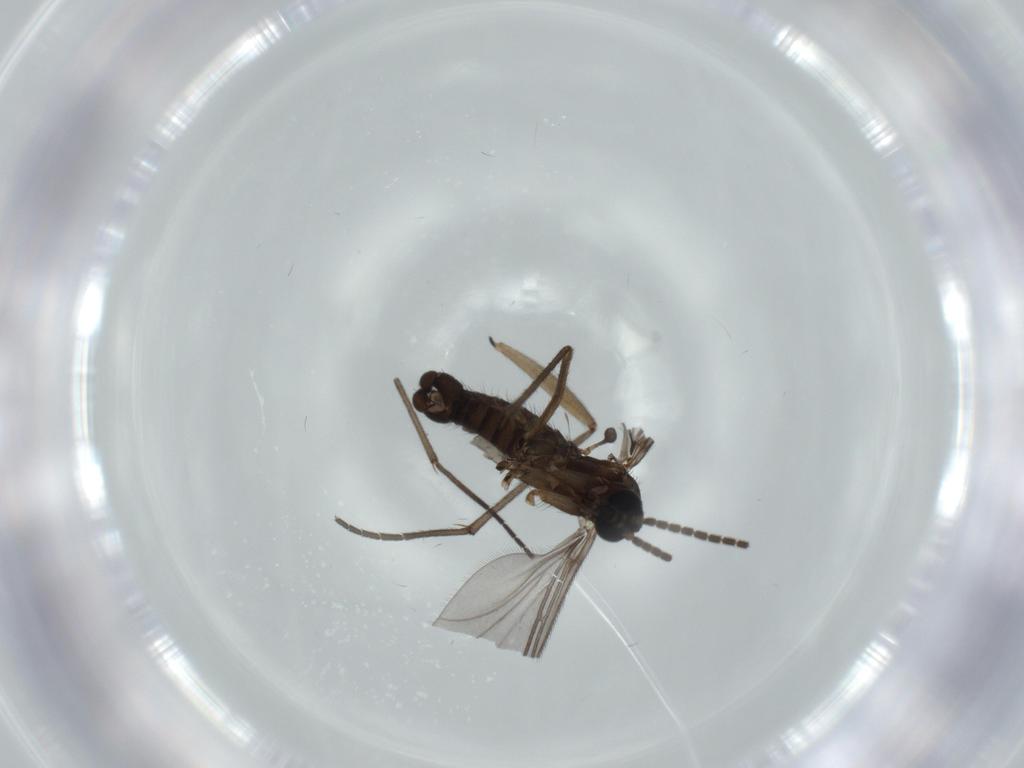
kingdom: Animalia
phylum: Arthropoda
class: Insecta
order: Diptera
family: Sciaridae
